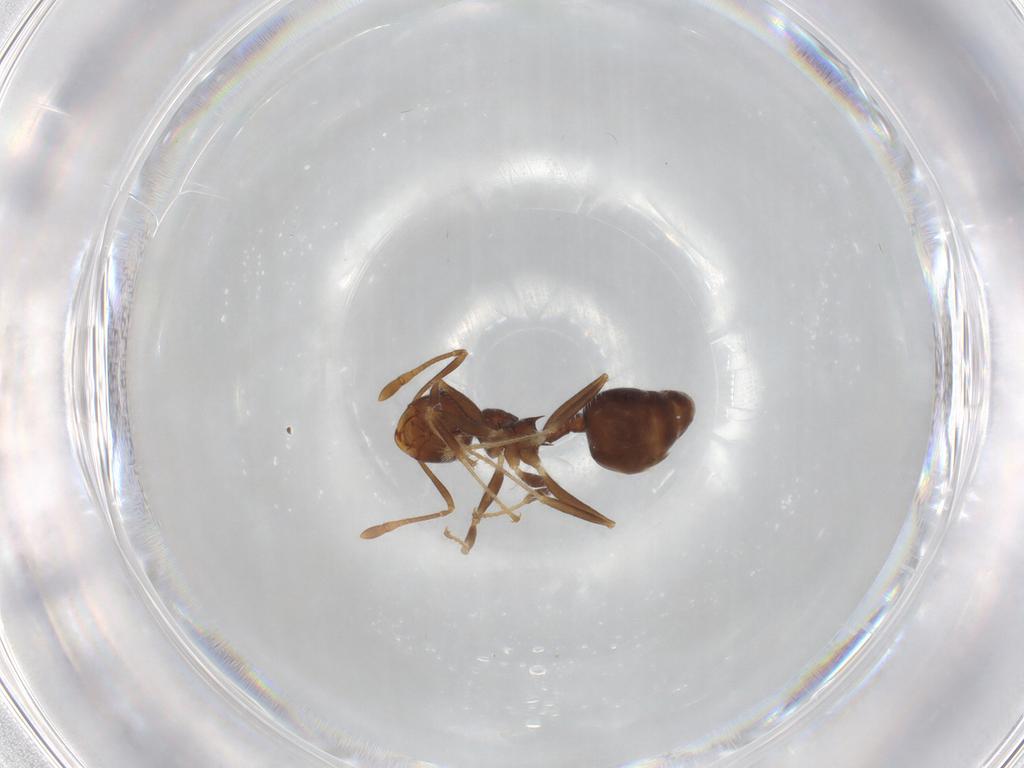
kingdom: Animalia
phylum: Arthropoda
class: Insecta
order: Hymenoptera
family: Formicidae
